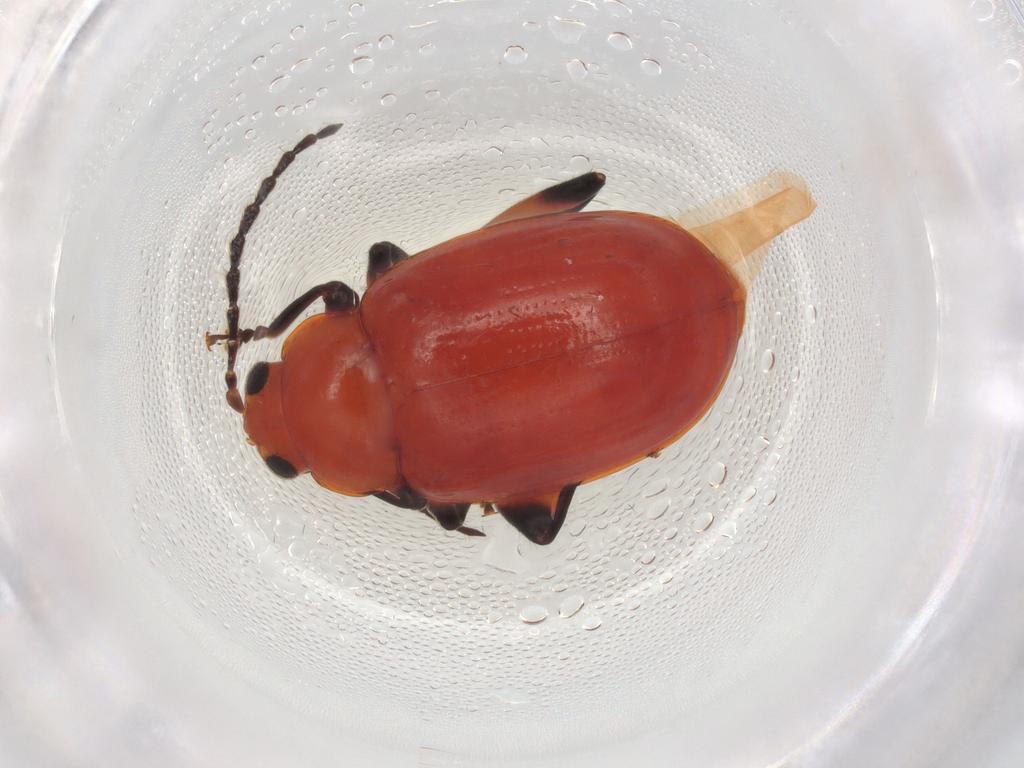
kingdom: Animalia
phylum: Arthropoda
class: Insecta
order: Coleoptera
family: Chrysomelidae
